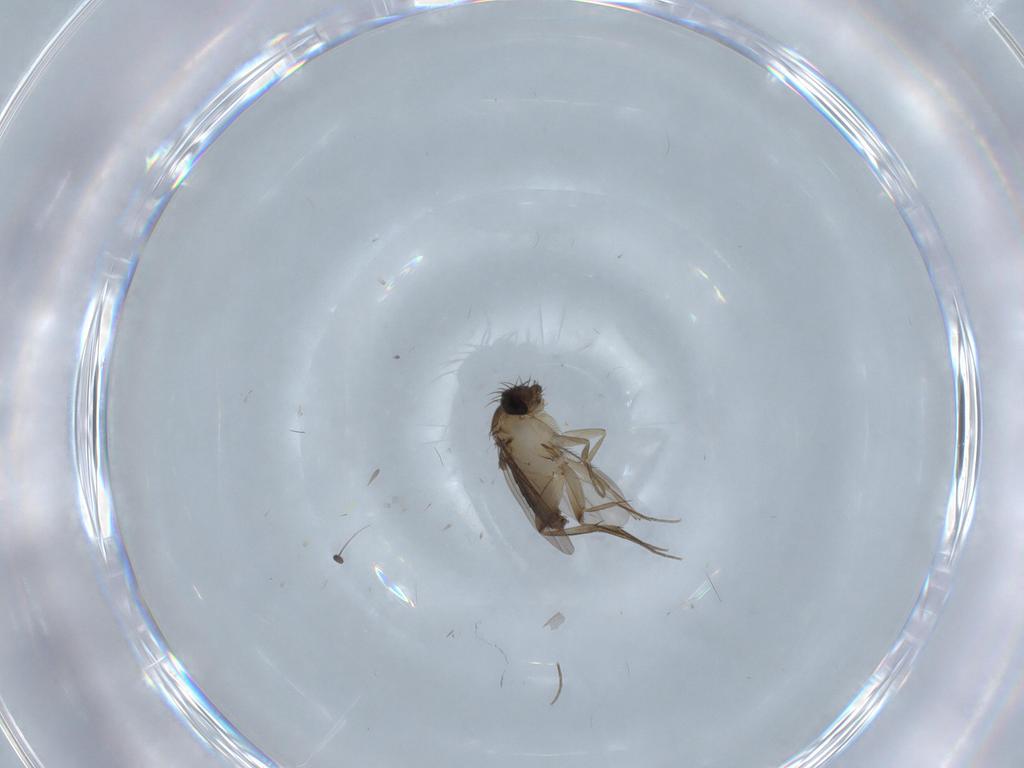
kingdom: Animalia
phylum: Arthropoda
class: Insecta
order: Diptera
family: Phoridae
